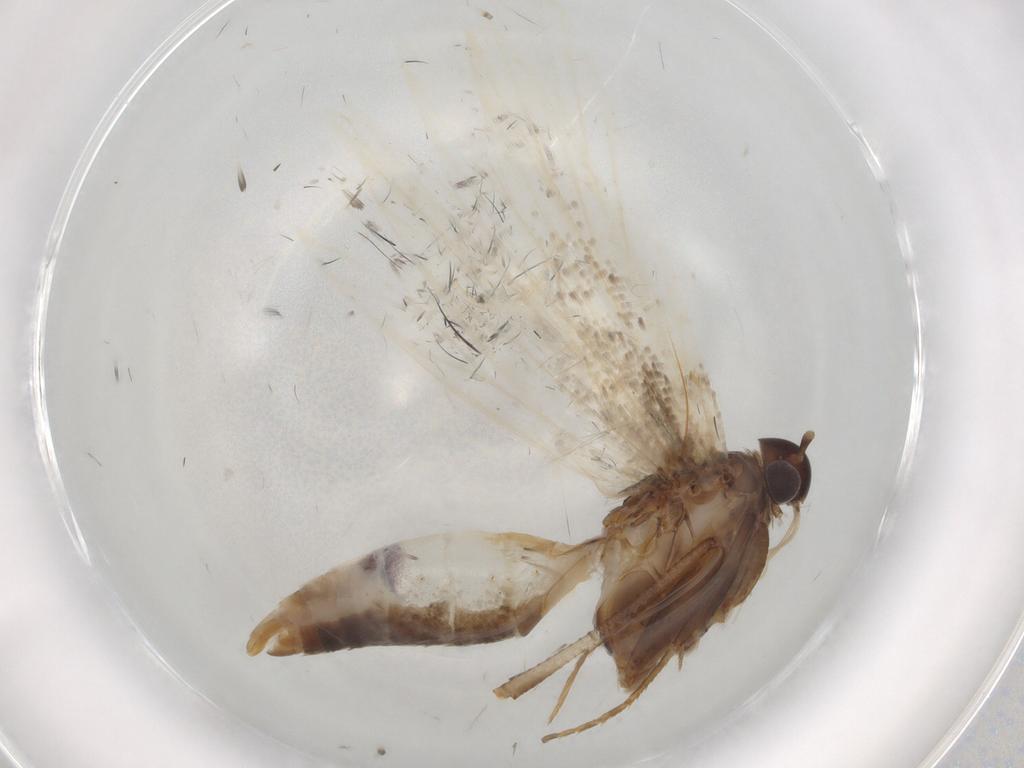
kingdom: Animalia
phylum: Arthropoda
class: Insecta
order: Lepidoptera
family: Gelechiidae
